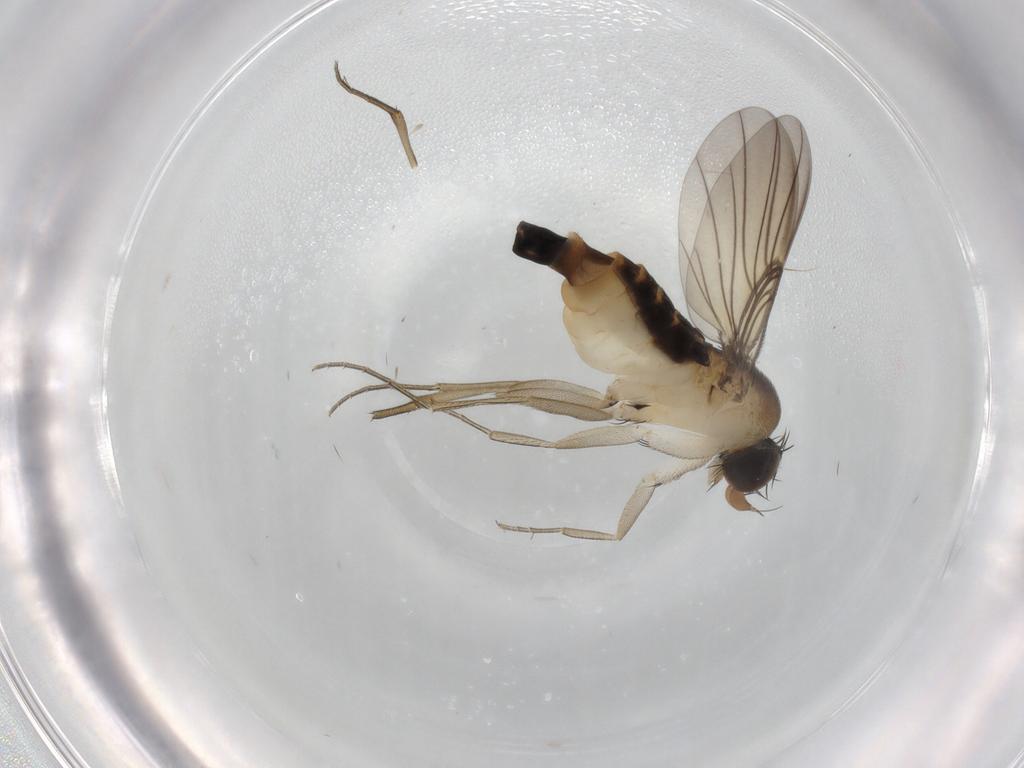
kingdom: Animalia
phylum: Arthropoda
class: Insecta
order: Diptera
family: Phoridae
